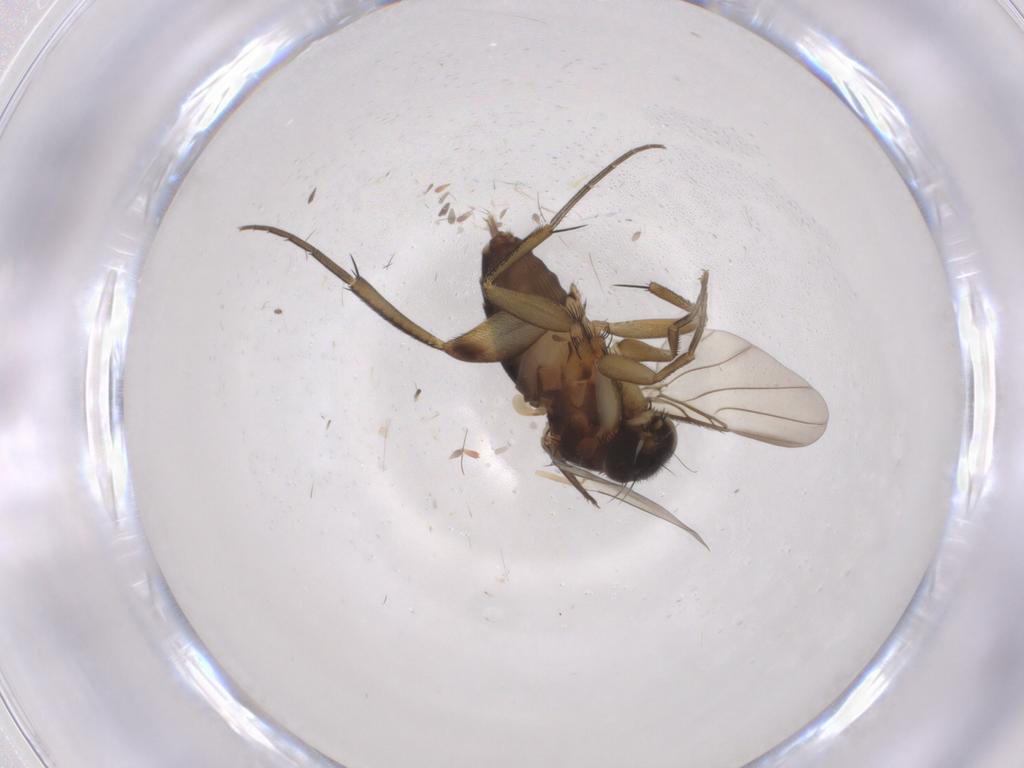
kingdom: Animalia
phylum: Arthropoda
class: Insecta
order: Diptera
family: Phoridae
